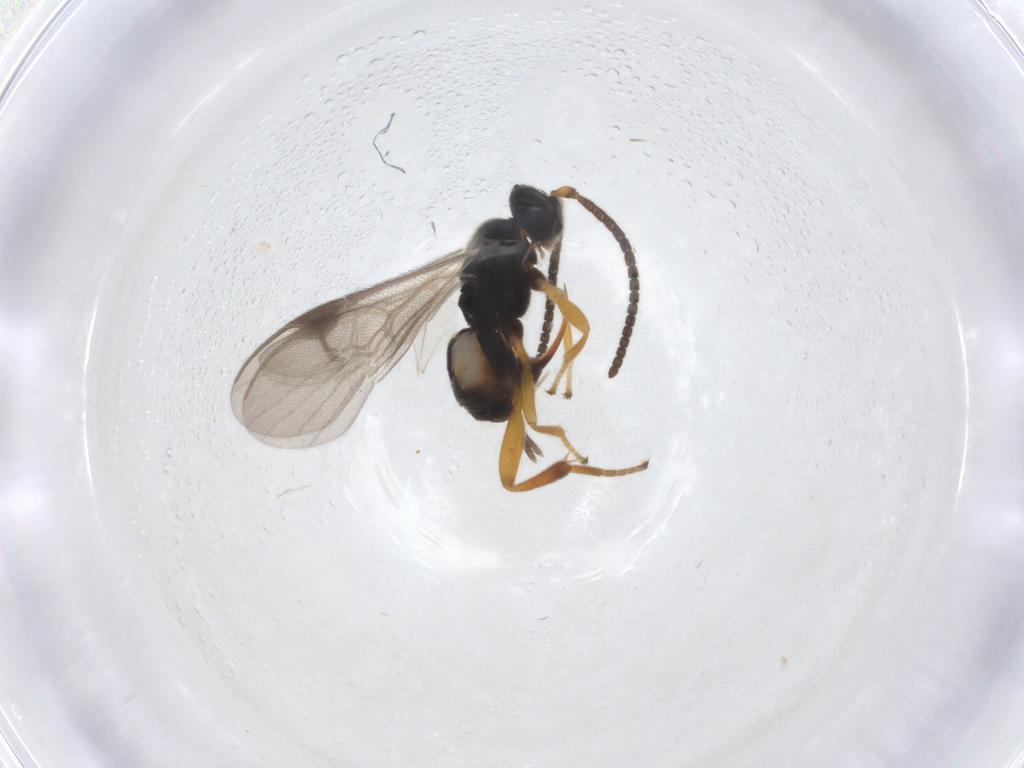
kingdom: Animalia
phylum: Arthropoda
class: Insecta
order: Hymenoptera
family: Braconidae
